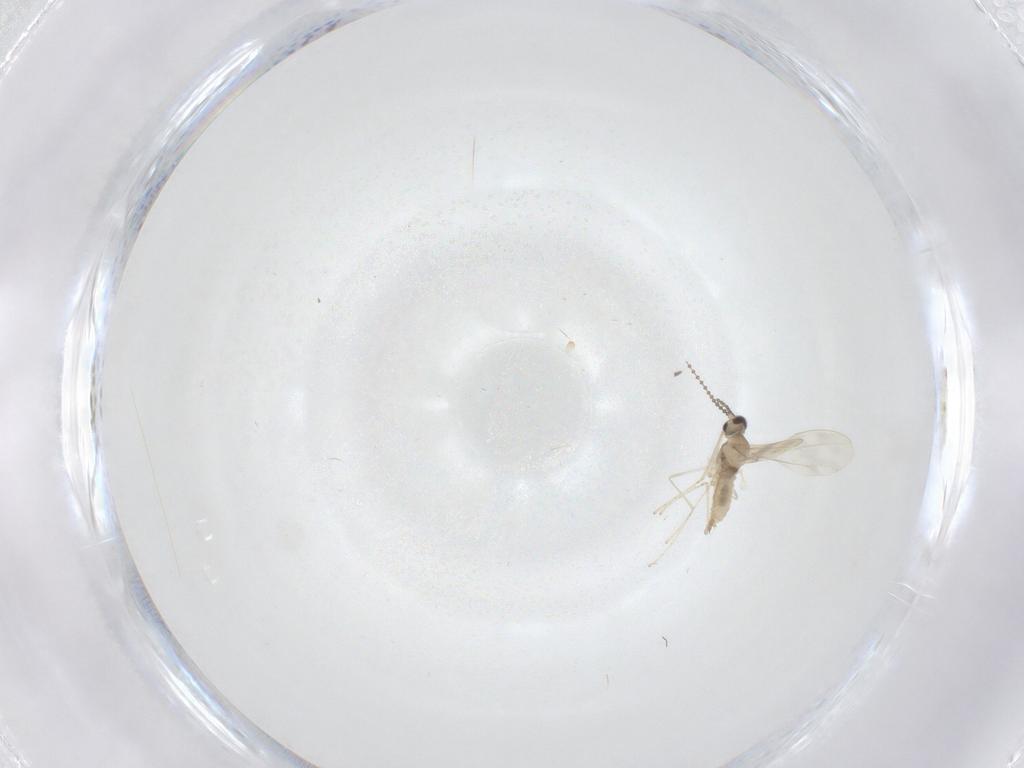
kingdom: Animalia
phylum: Arthropoda
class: Insecta
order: Diptera
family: Cecidomyiidae
